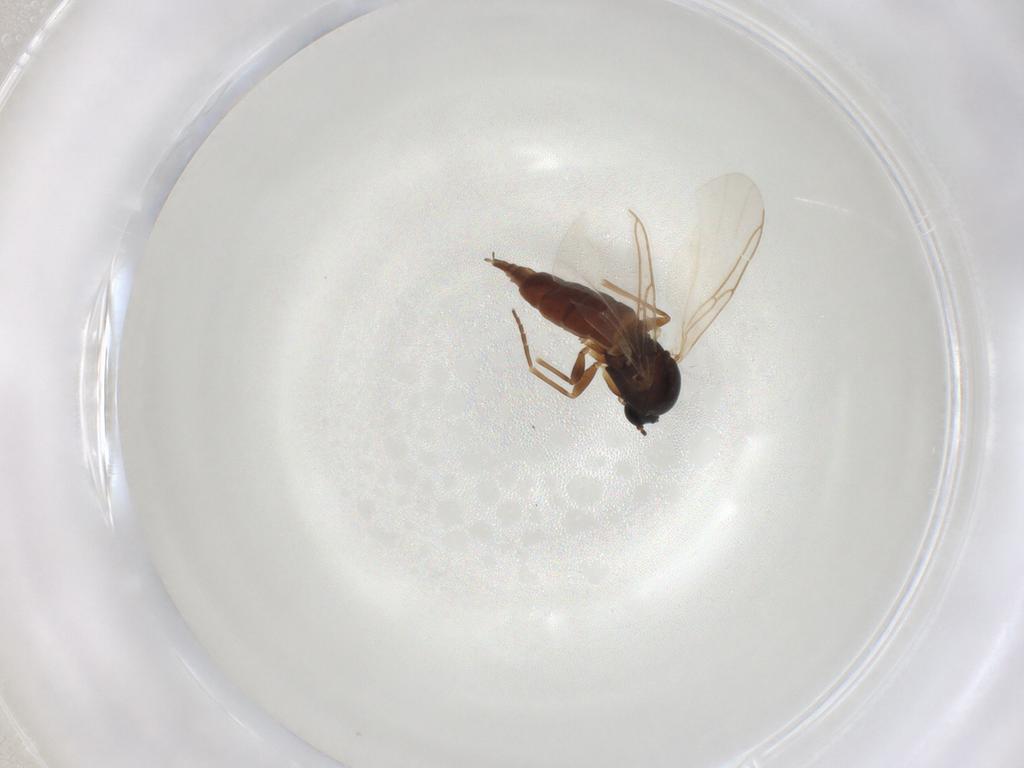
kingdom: Animalia
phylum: Arthropoda
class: Insecta
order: Diptera
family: Sciaridae
